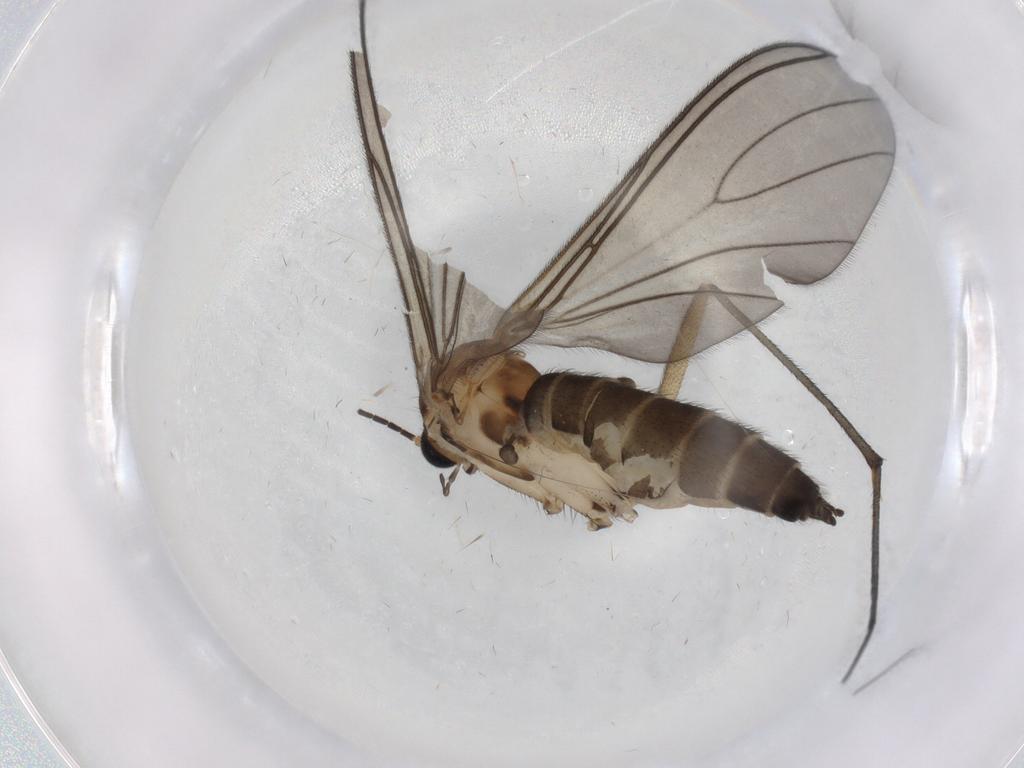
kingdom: Animalia
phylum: Arthropoda
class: Insecta
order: Diptera
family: Sciaridae
